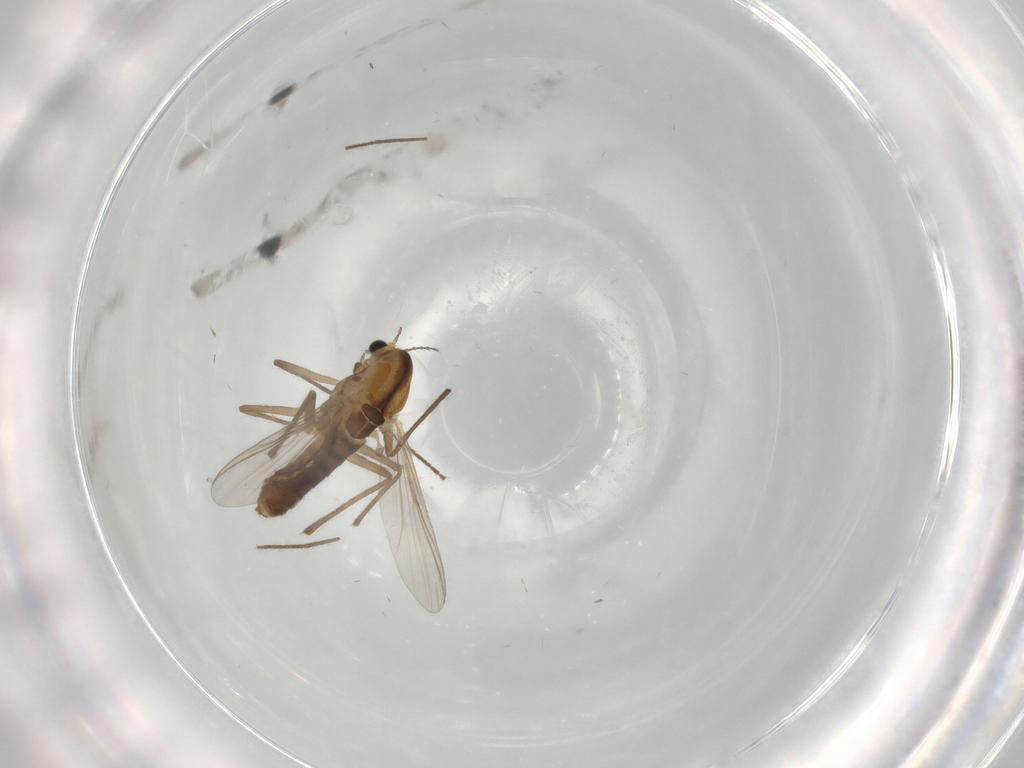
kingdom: Animalia
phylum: Arthropoda
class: Insecta
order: Diptera
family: Chironomidae
